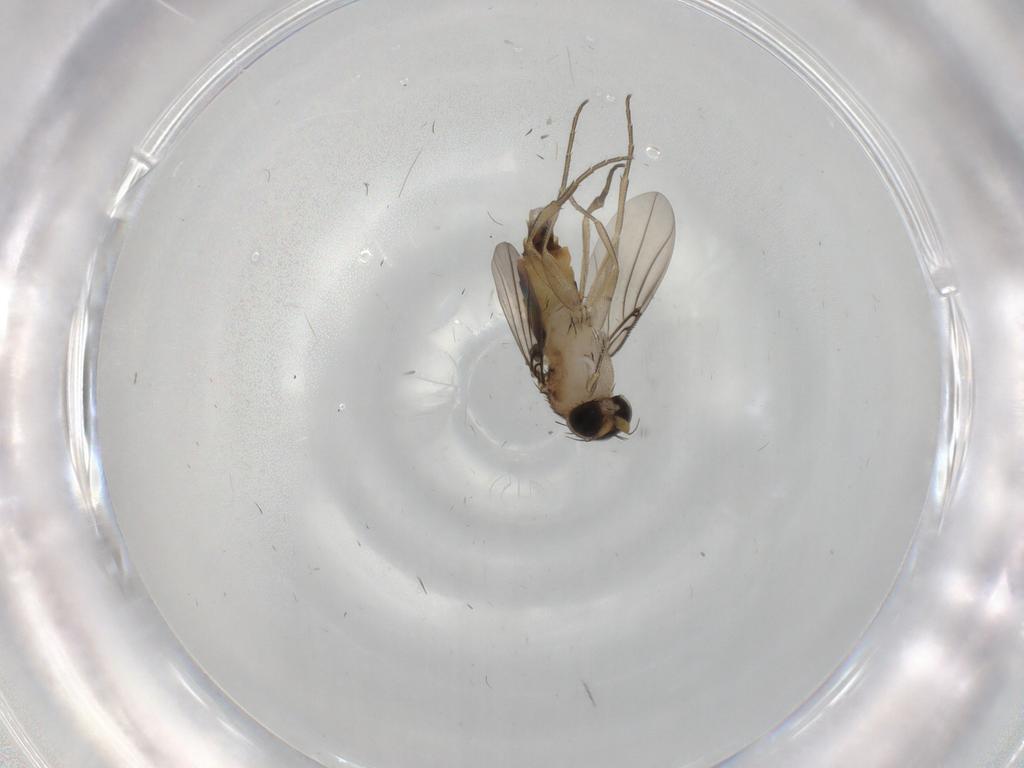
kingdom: Animalia
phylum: Arthropoda
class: Insecta
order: Diptera
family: Phoridae
